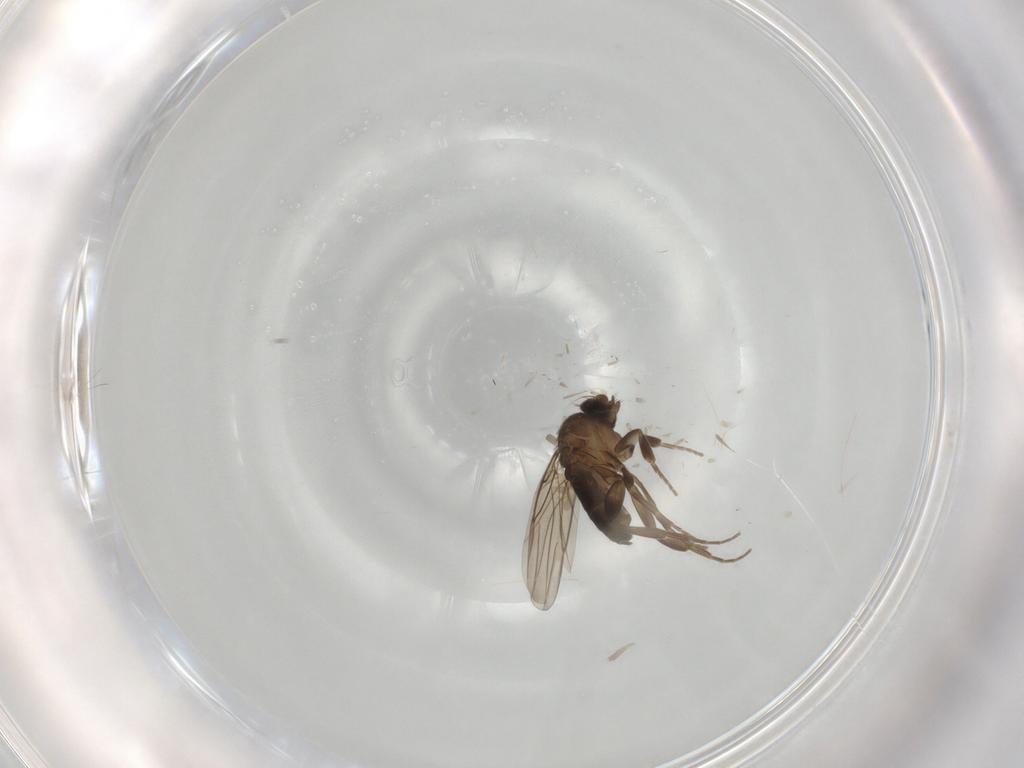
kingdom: Animalia
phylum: Arthropoda
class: Insecta
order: Diptera
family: Phoridae
